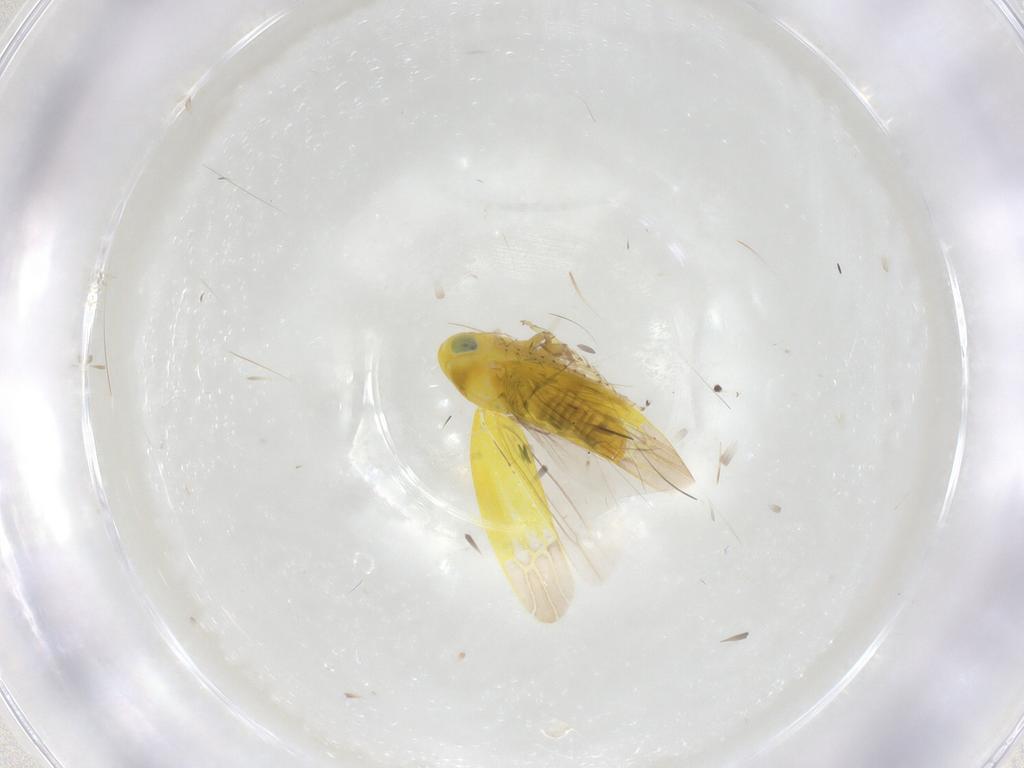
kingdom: Animalia
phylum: Arthropoda
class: Insecta
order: Hemiptera
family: Cicadellidae
